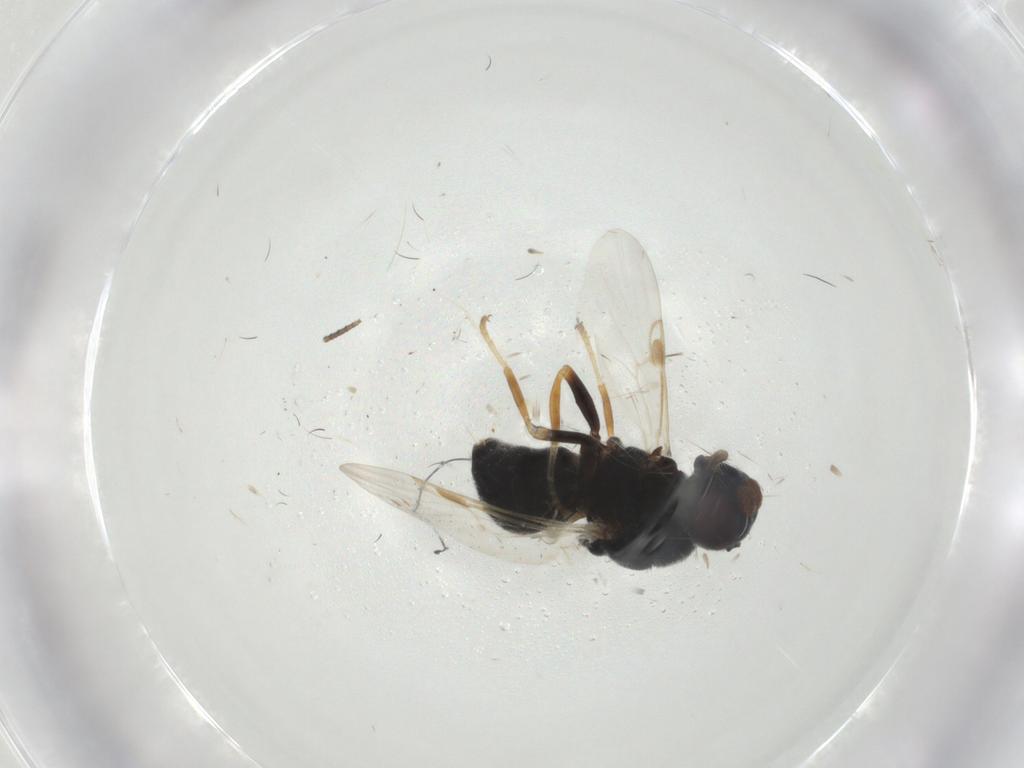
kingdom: Animalia
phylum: Arthropoda
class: Insecta
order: Diptera
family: Stratiomyidae
